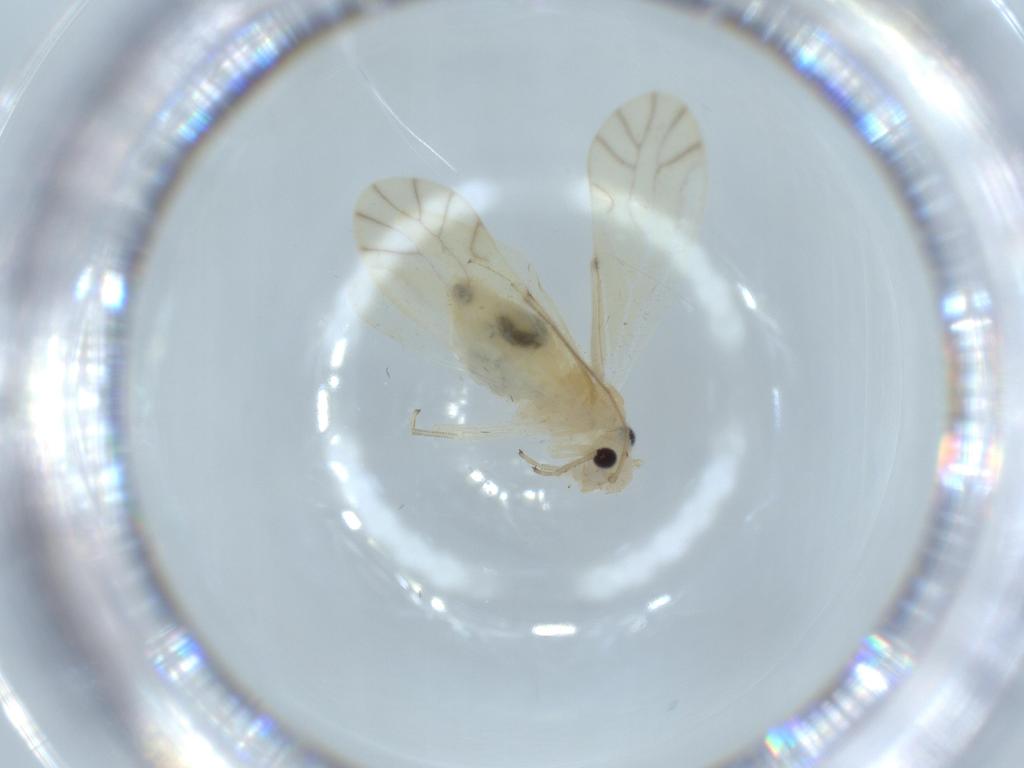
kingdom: Animalia
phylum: Arthropoda
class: Insecta
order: Psocodea
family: Caeciliusidae
